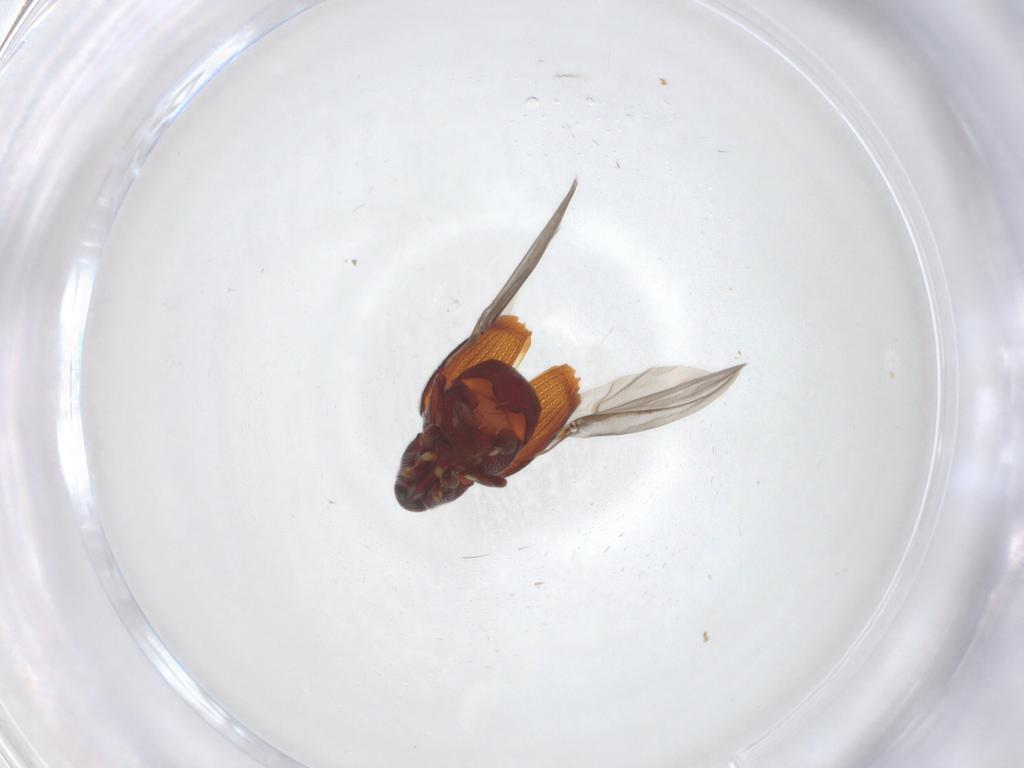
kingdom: Animalia
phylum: Arthropoda
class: Insecta
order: Coleoptera
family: Curculionidae
